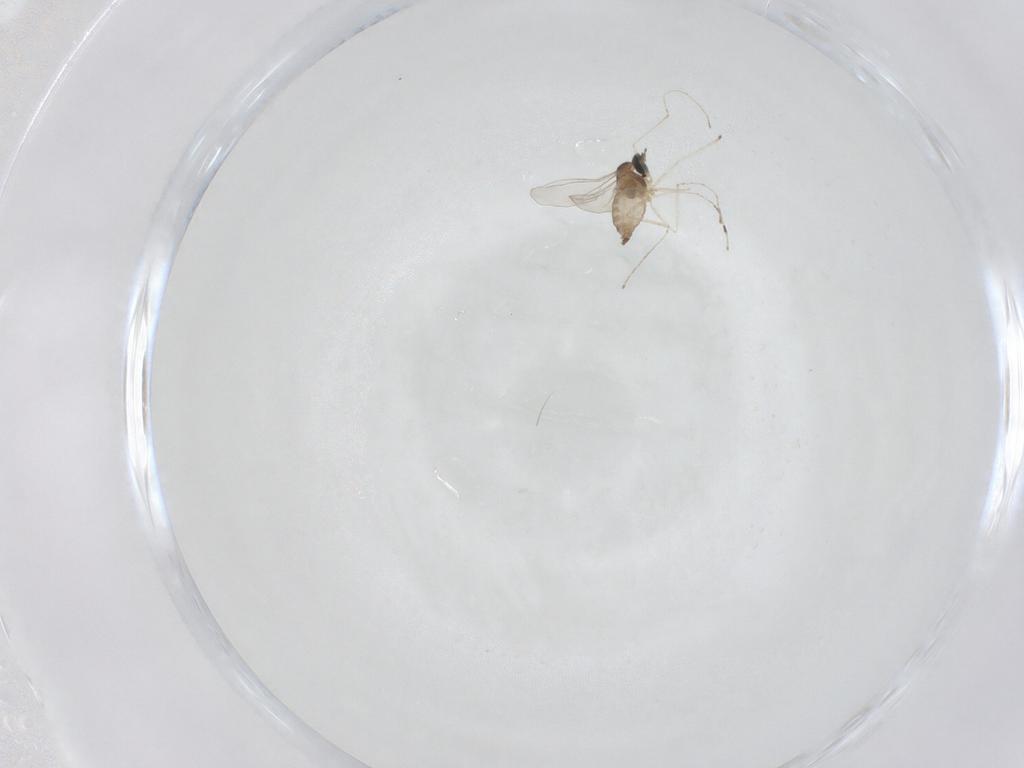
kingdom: Animalia
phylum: Arthropoda
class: Insecta
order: Diptera
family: Cecidomyiidae
